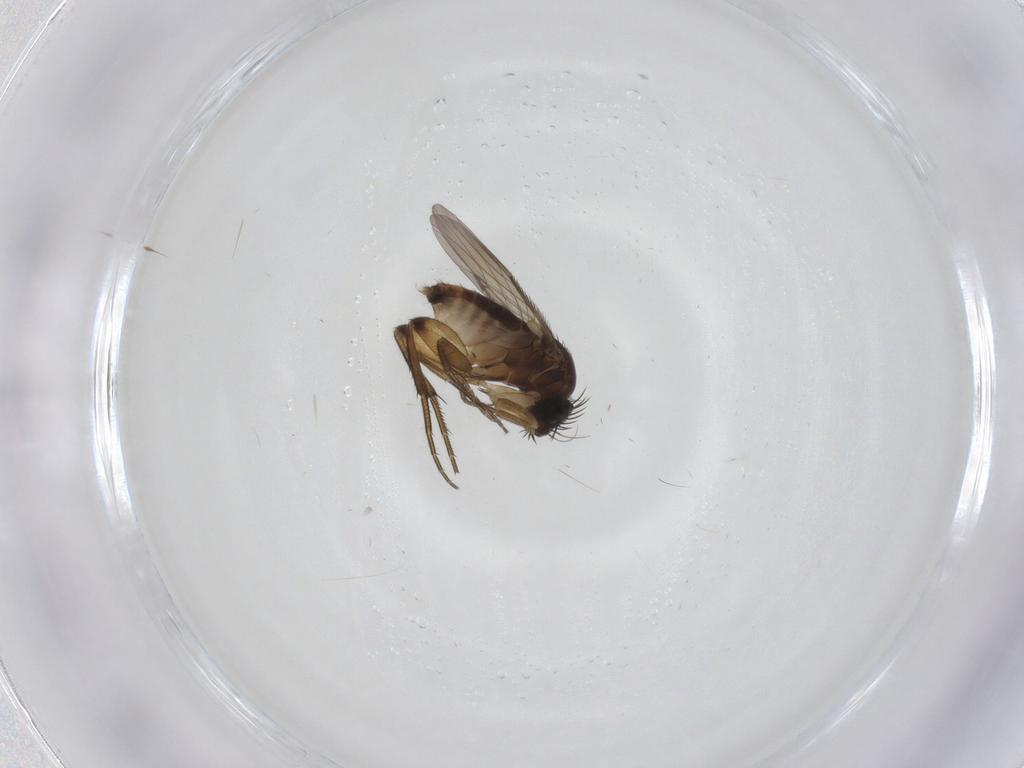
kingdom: Animalia
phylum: Arthropoda
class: Insecta
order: Diptera
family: Phoridae
